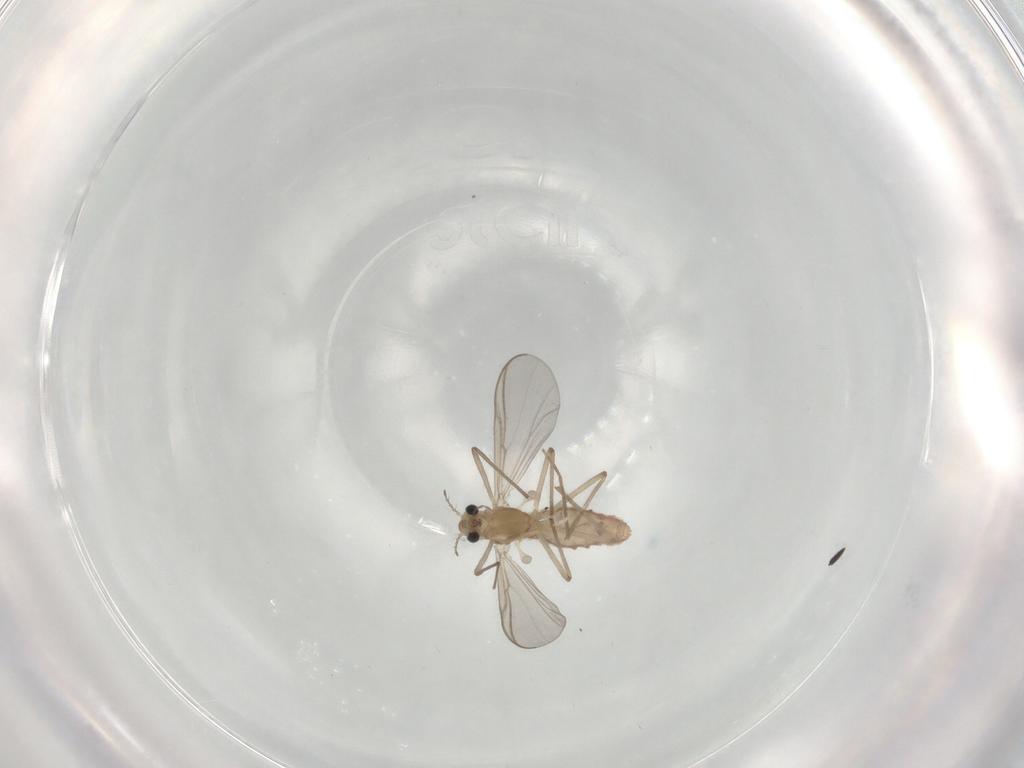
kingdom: Animalia
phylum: Arthropoda
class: Insecta
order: Diptera
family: Chironomidae
